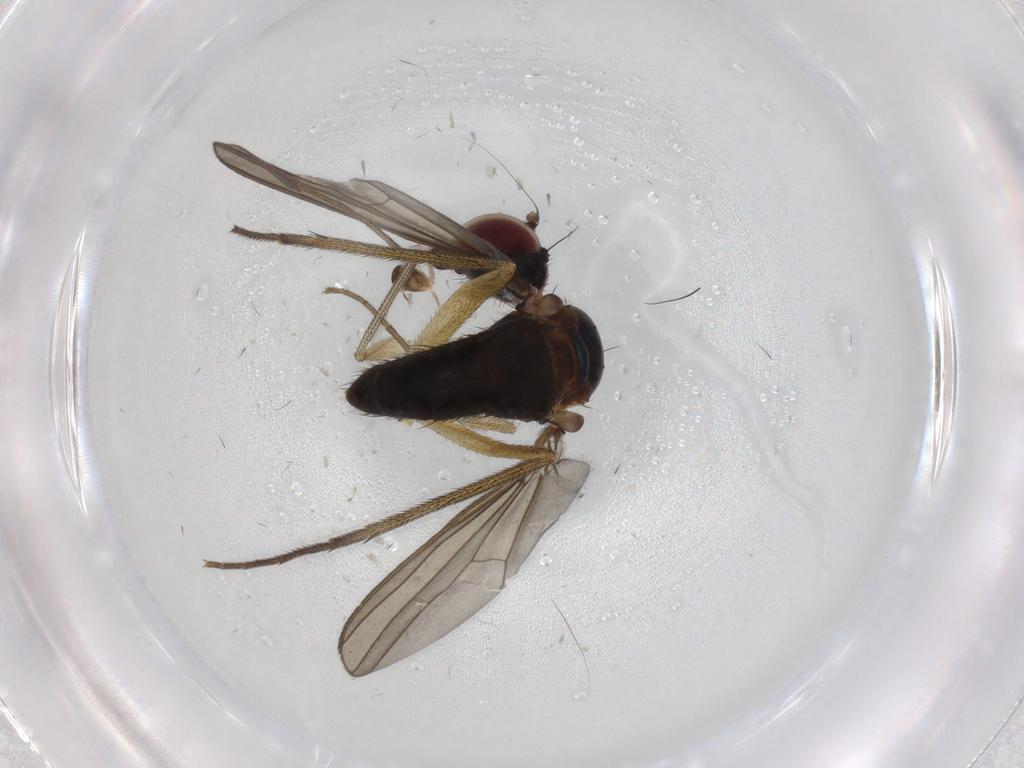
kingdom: Animalia
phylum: Arthropoda
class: Insecta
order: Diptera
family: Dolichopodidae
